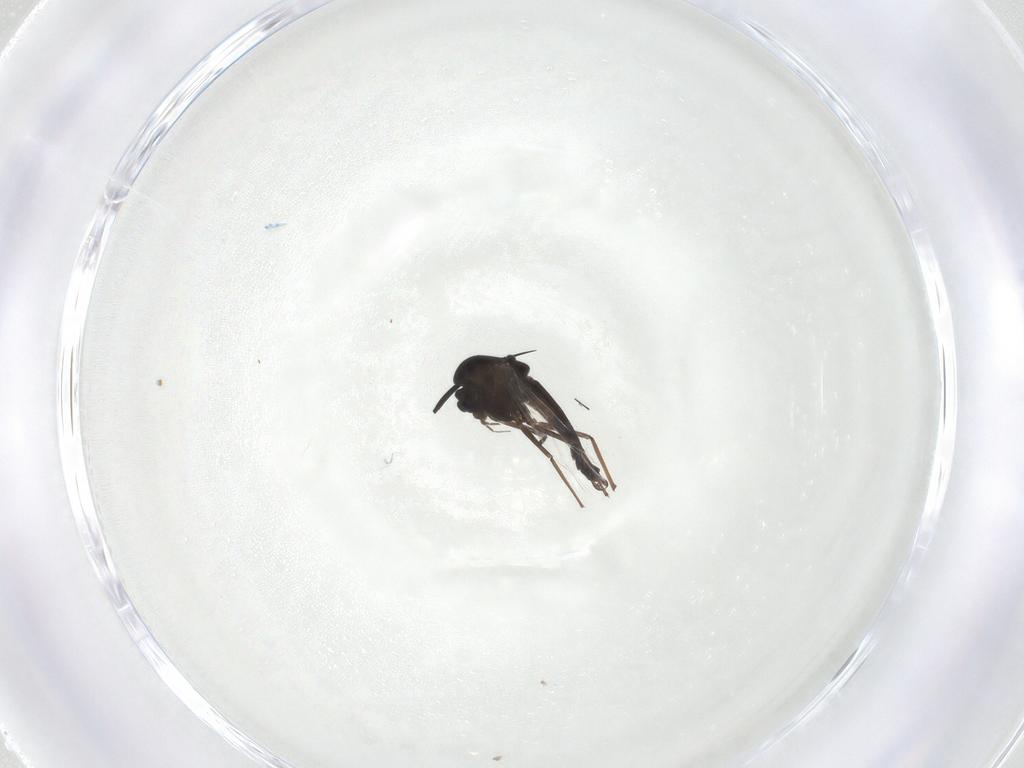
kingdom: Animalia
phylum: Arthropoda
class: Insecta
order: Diptera
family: Chironomidae
